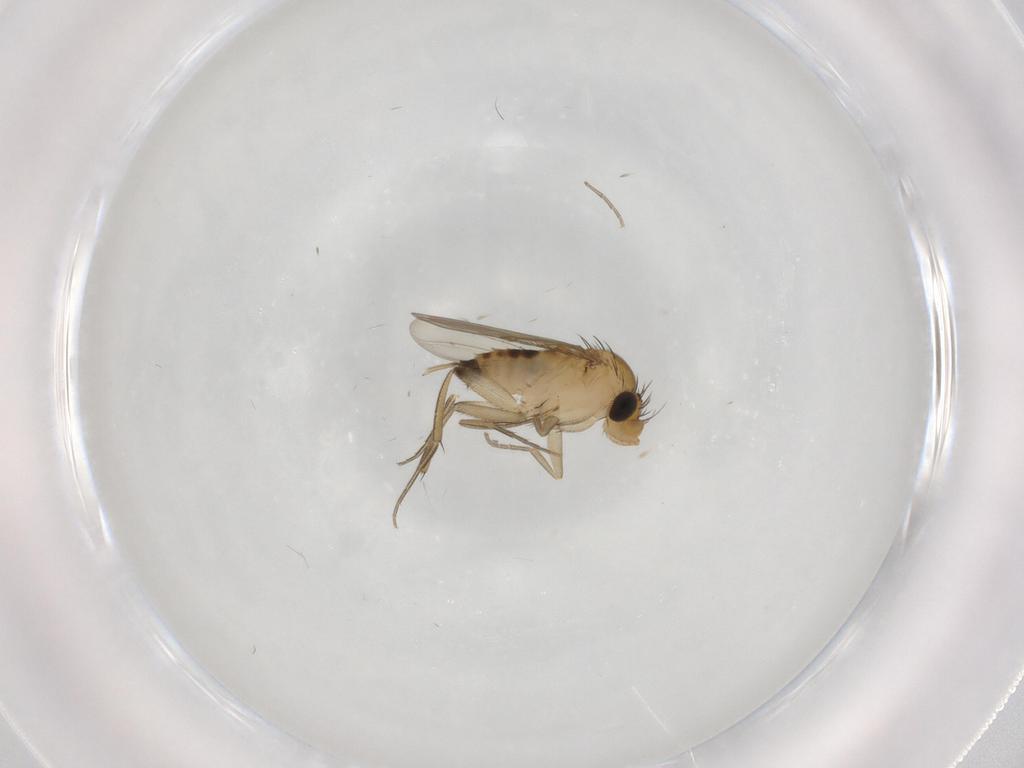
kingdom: Animalia
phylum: Arthropoda
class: Insecta
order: Diptera
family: Phoridae
